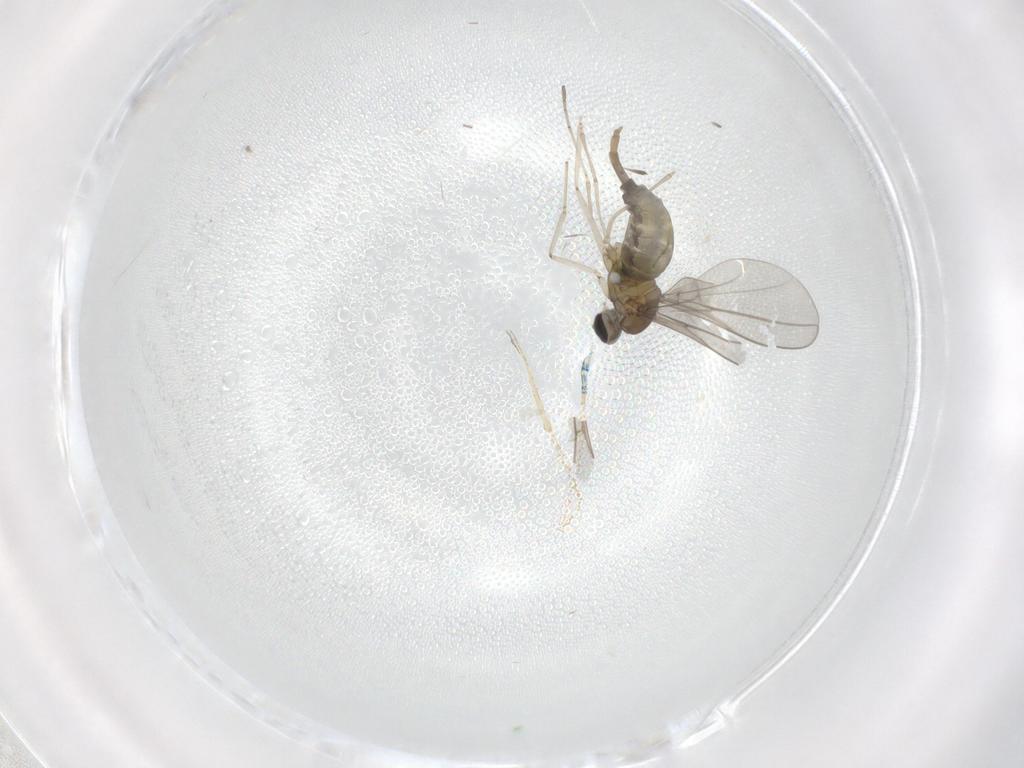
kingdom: Animalia
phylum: Arthropoda
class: Insecta
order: Diptera
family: Cecidomyiidae
